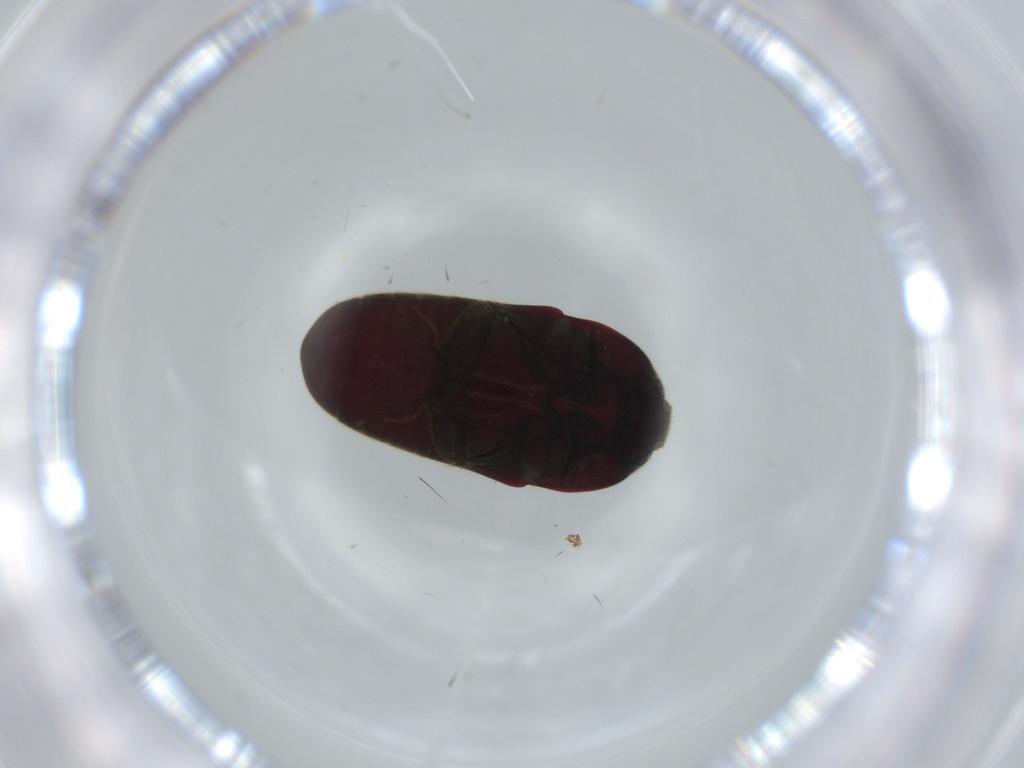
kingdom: Animalia
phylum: Arthropoda
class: Insecta
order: Coleoptera
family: Throscidae
